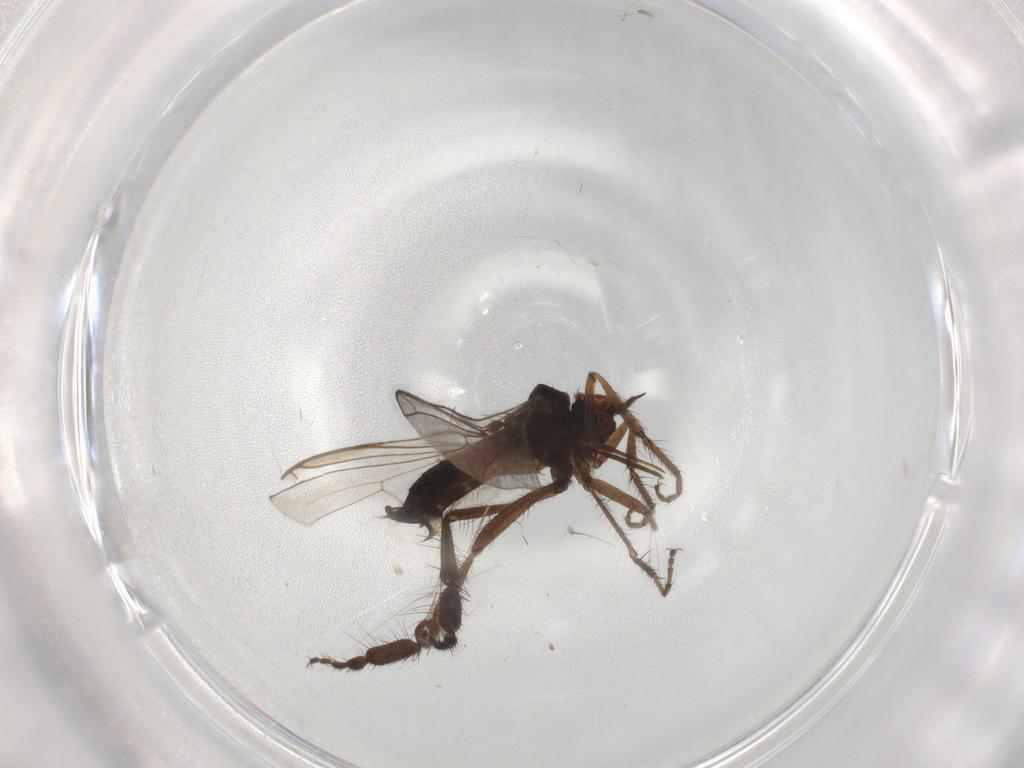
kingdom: Animalia
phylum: Arthropoda
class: Insecta
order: Diptera
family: Empididae
